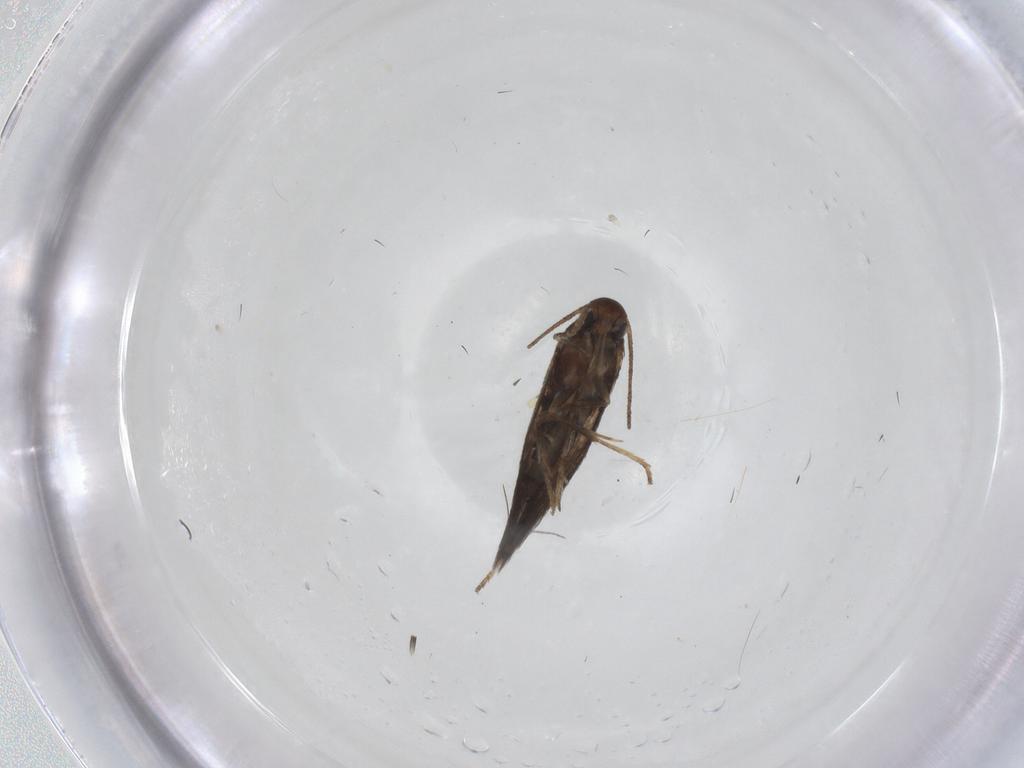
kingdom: Animalia
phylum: Arthropoda
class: Insecta
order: Lepidoptera
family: Heliozelidae
